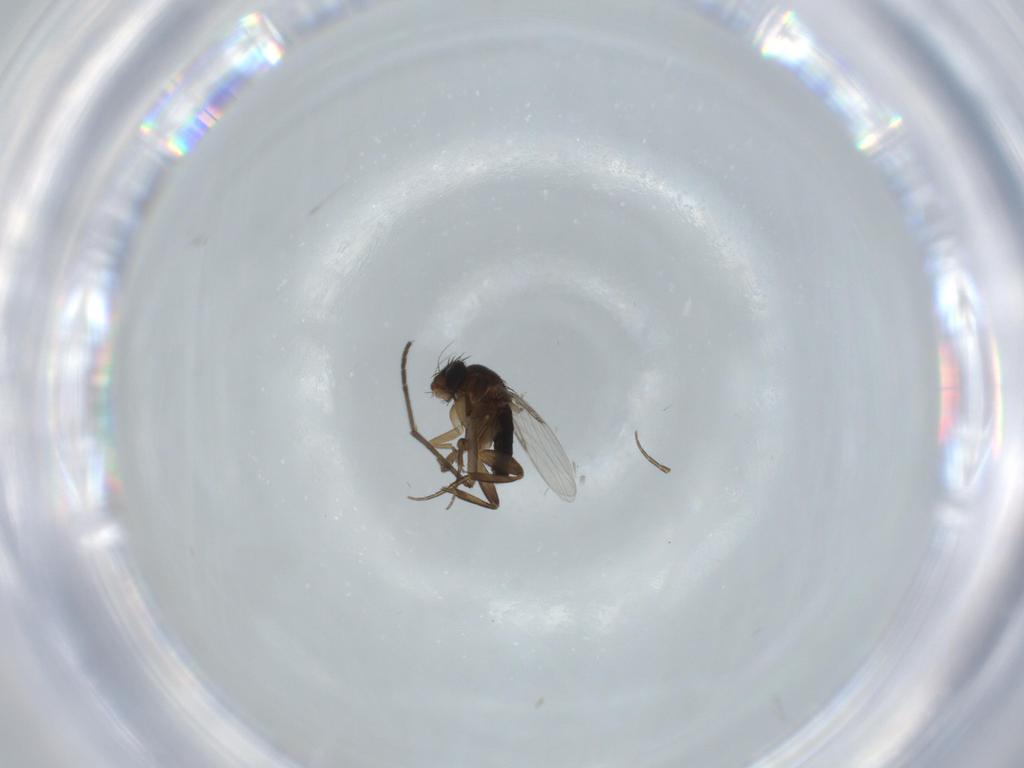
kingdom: Animalia
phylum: Arthropoda
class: Insecta
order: Diptera
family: Phoridae
